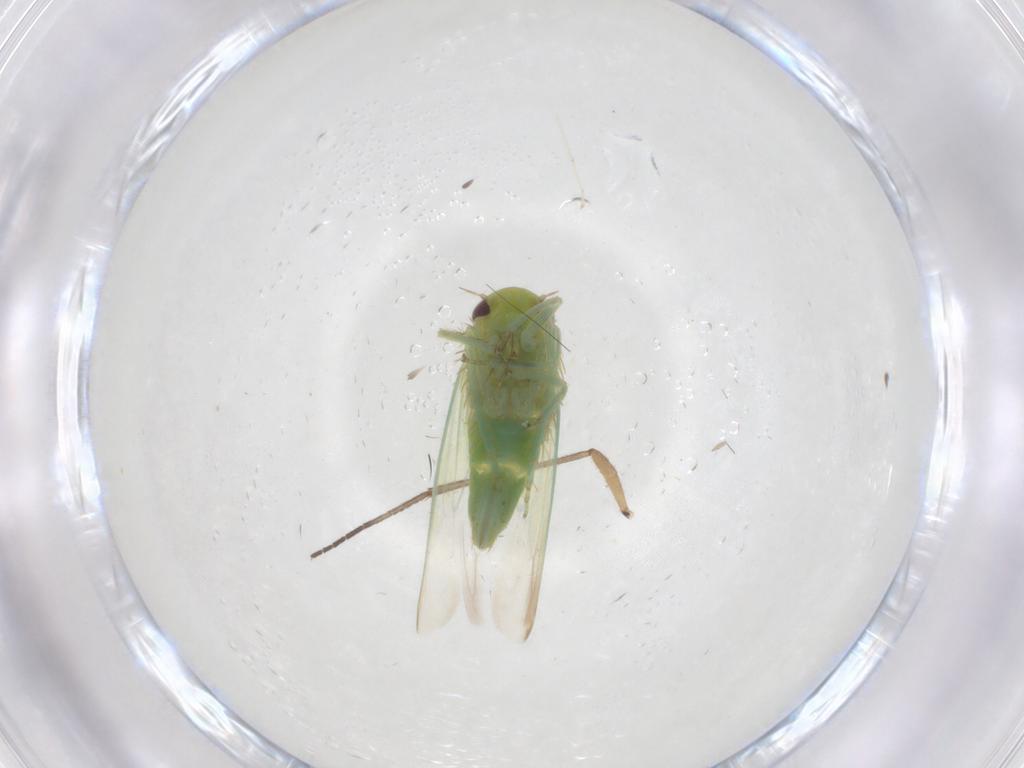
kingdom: Animalia
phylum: Arthropoda
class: Insecta
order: Hemiptera
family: Cicadellidae
